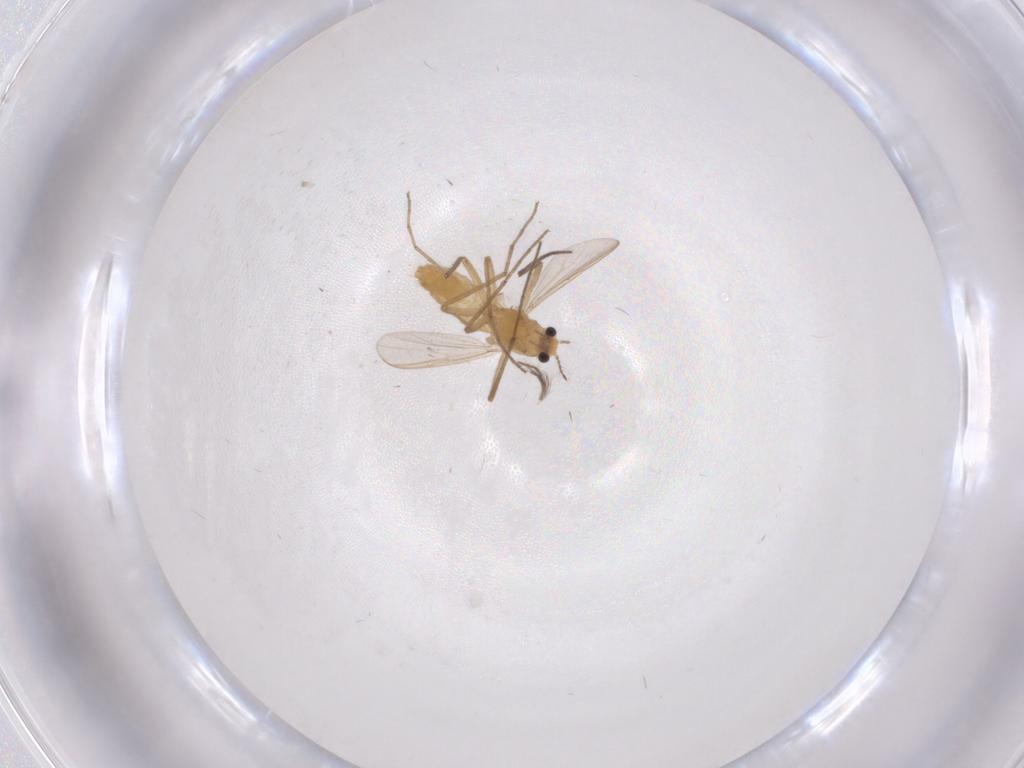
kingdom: Animalia
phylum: Arthropoda
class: Insecta
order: Diptera
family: Chironomidae
